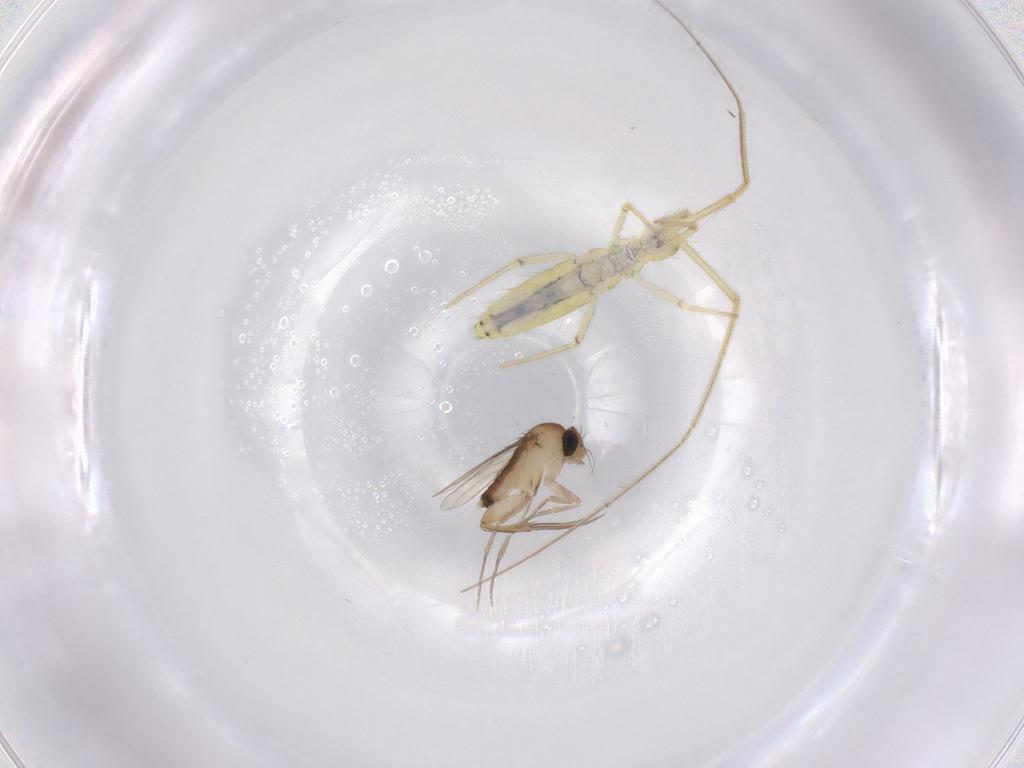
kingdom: Animalia
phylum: Arthropoda
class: Insecta
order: Diptera
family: Phoridae
